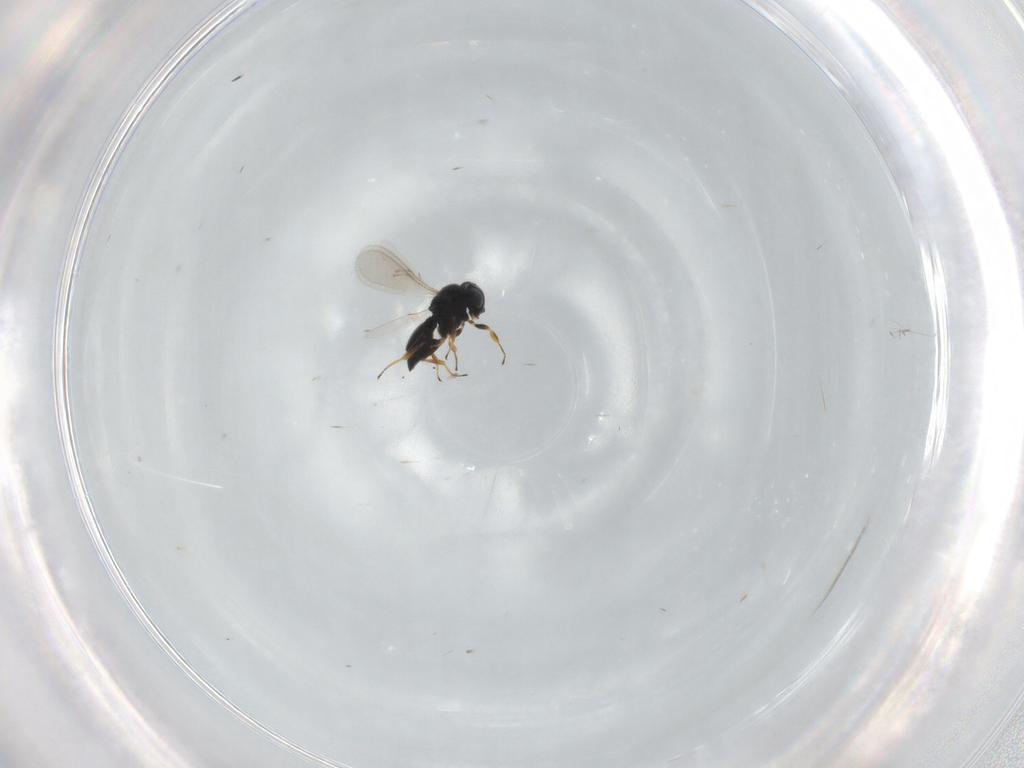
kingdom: Animalia
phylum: Arthropoda
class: Insecta
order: Hymenoptera
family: Scelionidae
